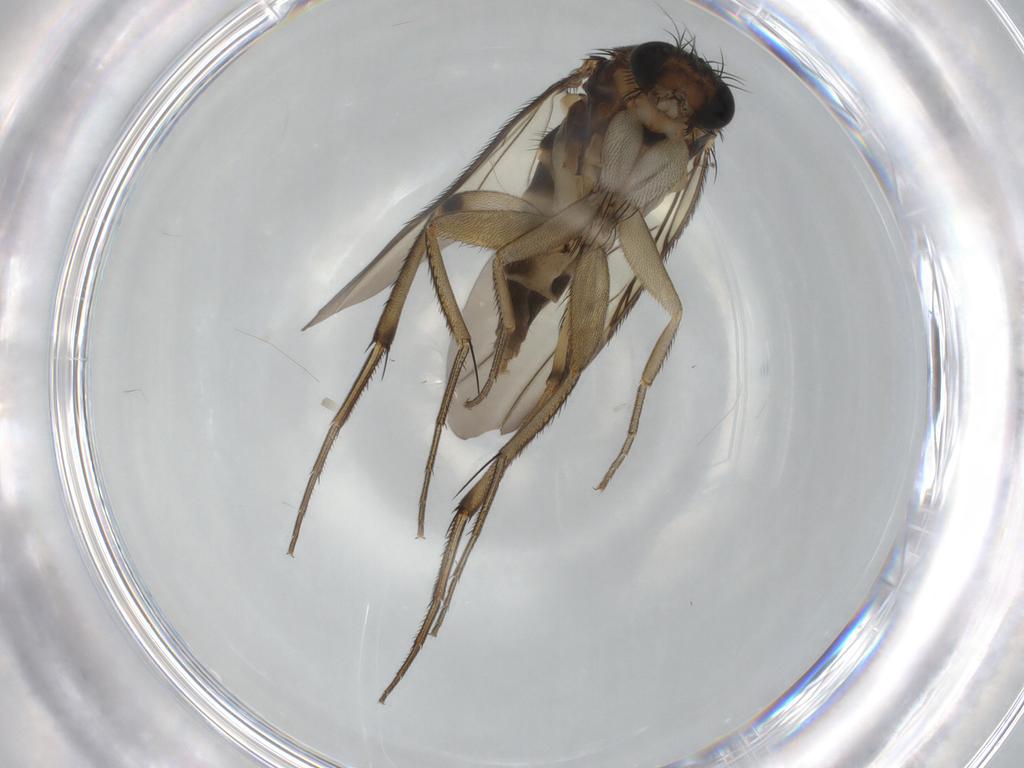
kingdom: Animalia
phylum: Arthropoda
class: Insecta
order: Diptera
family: Phoridae
